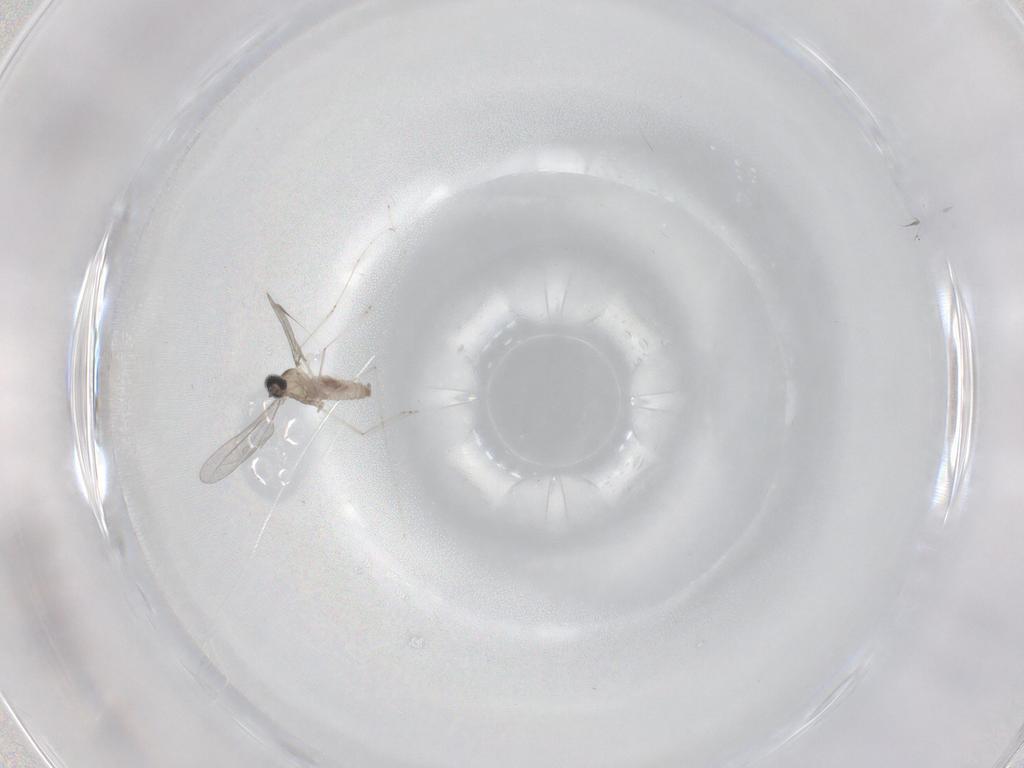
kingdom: Animalia
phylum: Arthropoda
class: Insecta
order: Diptera
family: Cecidomyiidae
